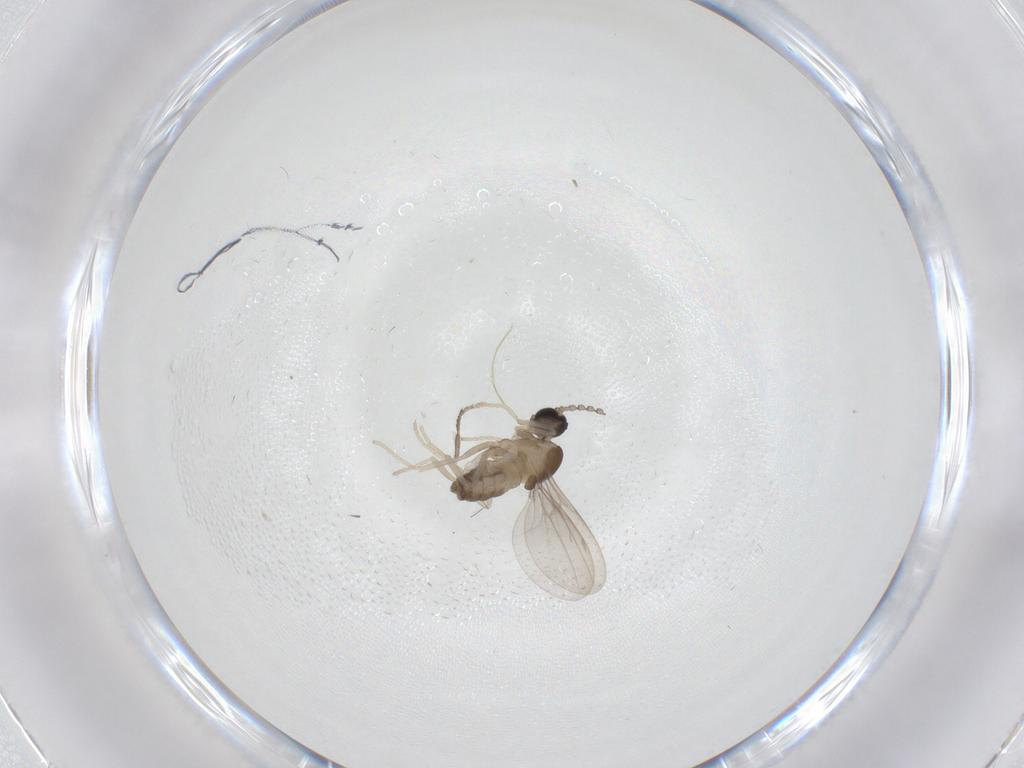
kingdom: Animalia
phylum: Arthropoda
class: Insecta
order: Diptera
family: Cecidomyiidae
